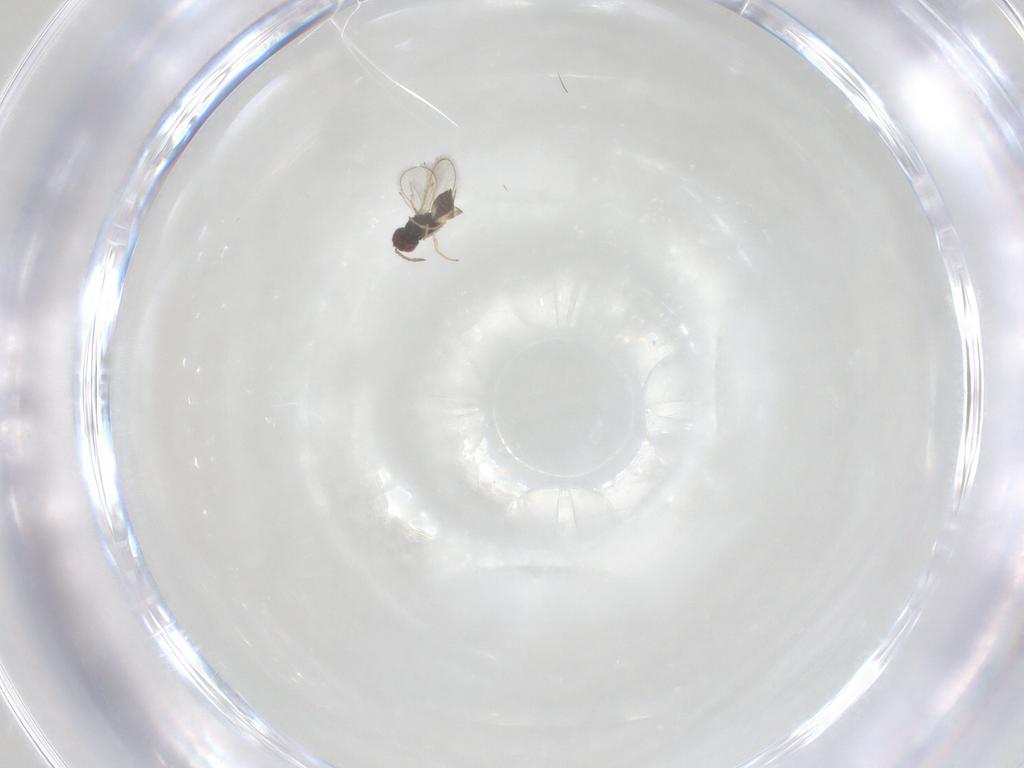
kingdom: Animalia
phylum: Arthropoda
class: Insecta
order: Hymenoptera
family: Eulophidae
